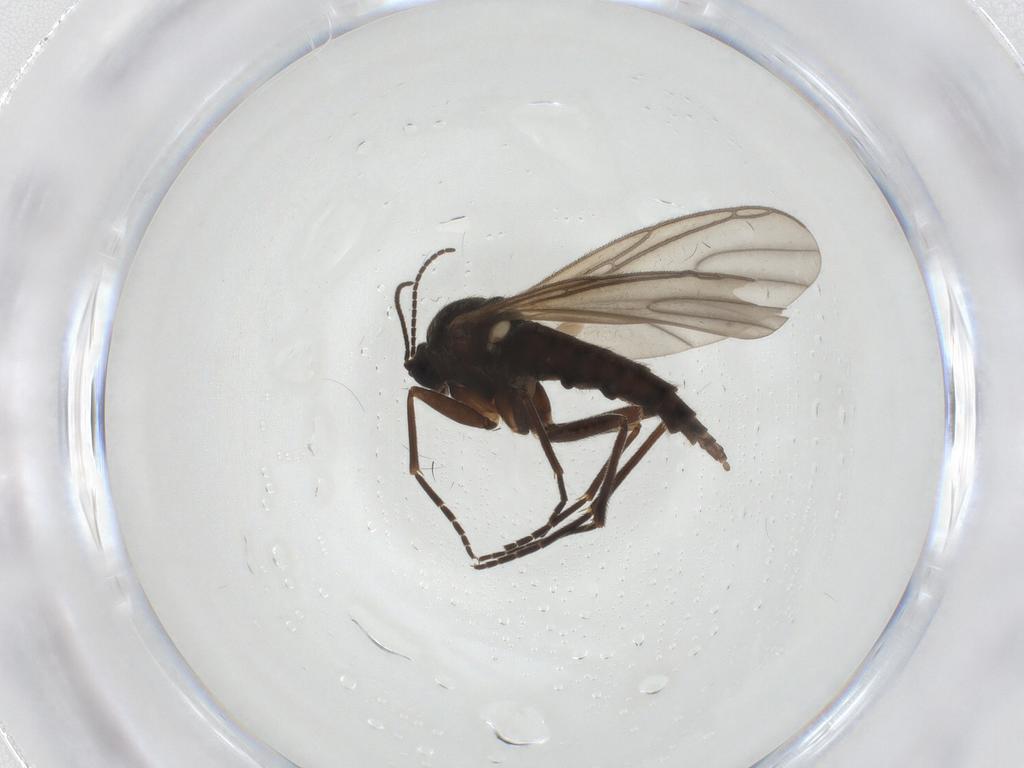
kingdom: Animalia
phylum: Arthropoda
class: Insecta
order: Diptera
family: Sciaridae
